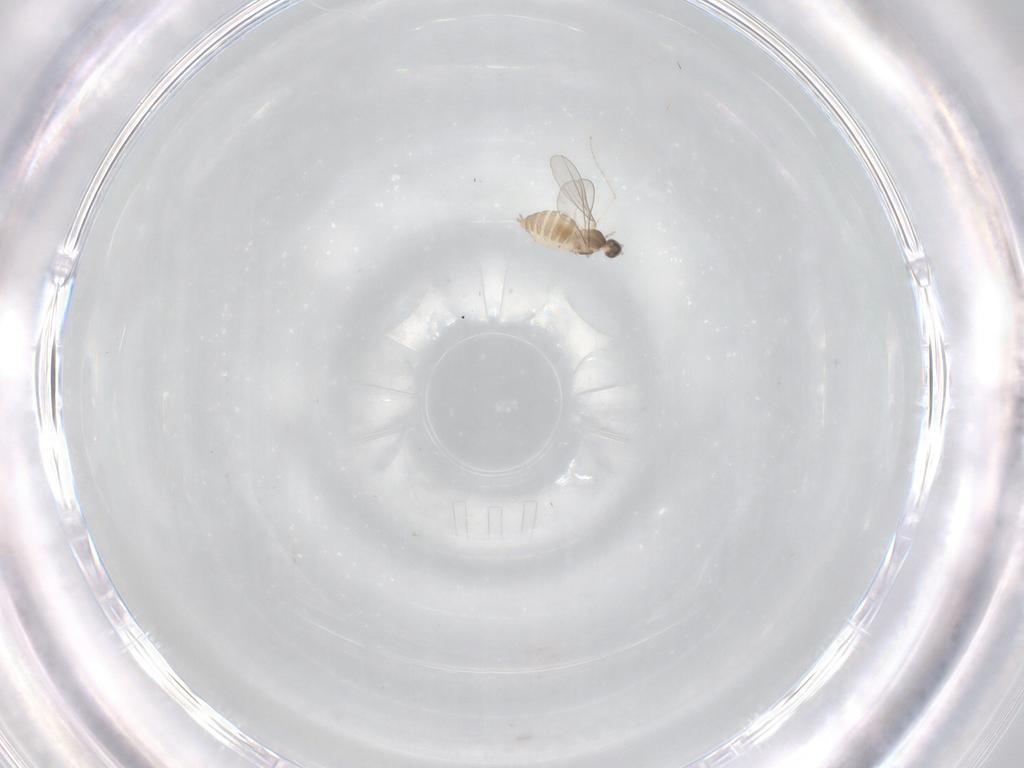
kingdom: Animalia
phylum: Arthropoda
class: Insecta
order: Diptera
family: Cecidomyiidae
